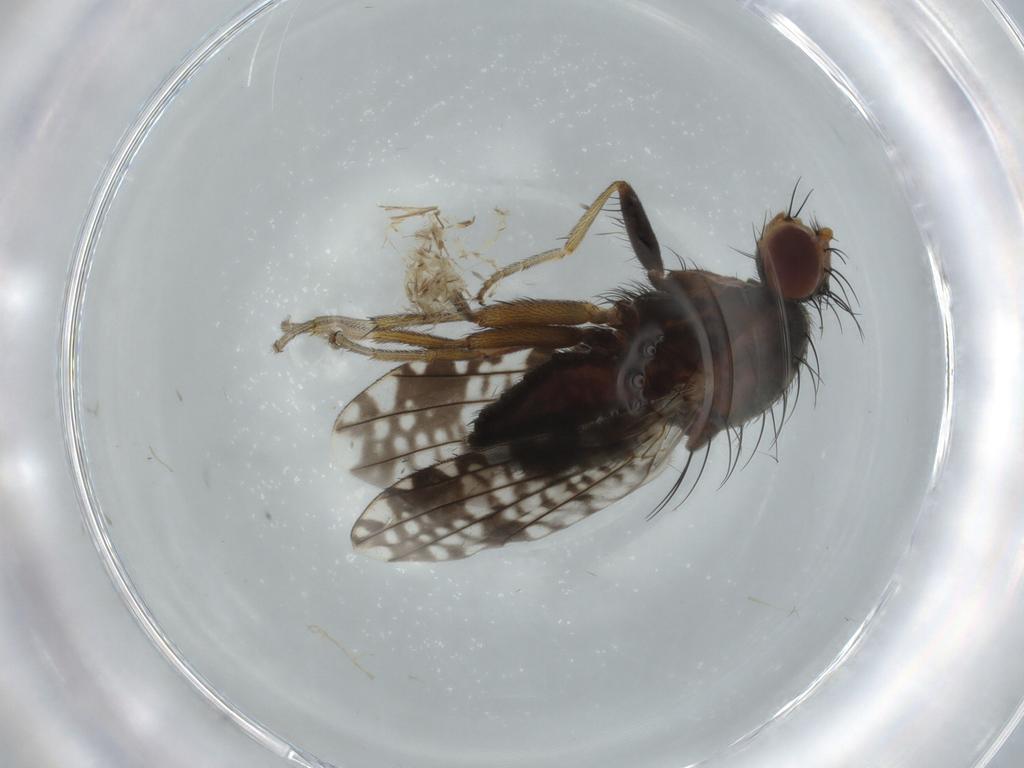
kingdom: Animalia
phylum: Arthropoda
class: Insecta
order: Diptera
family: Tephritidae
